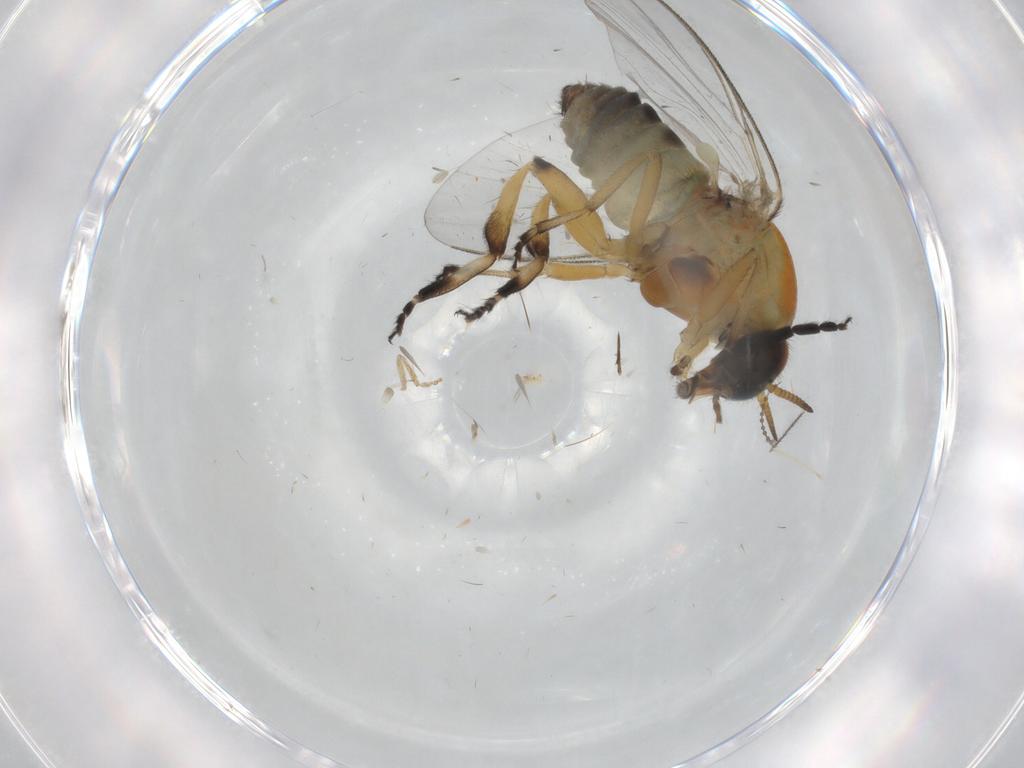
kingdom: Animalia
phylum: Arthropoda
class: Insecta
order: Diptera
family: Simuliidae
